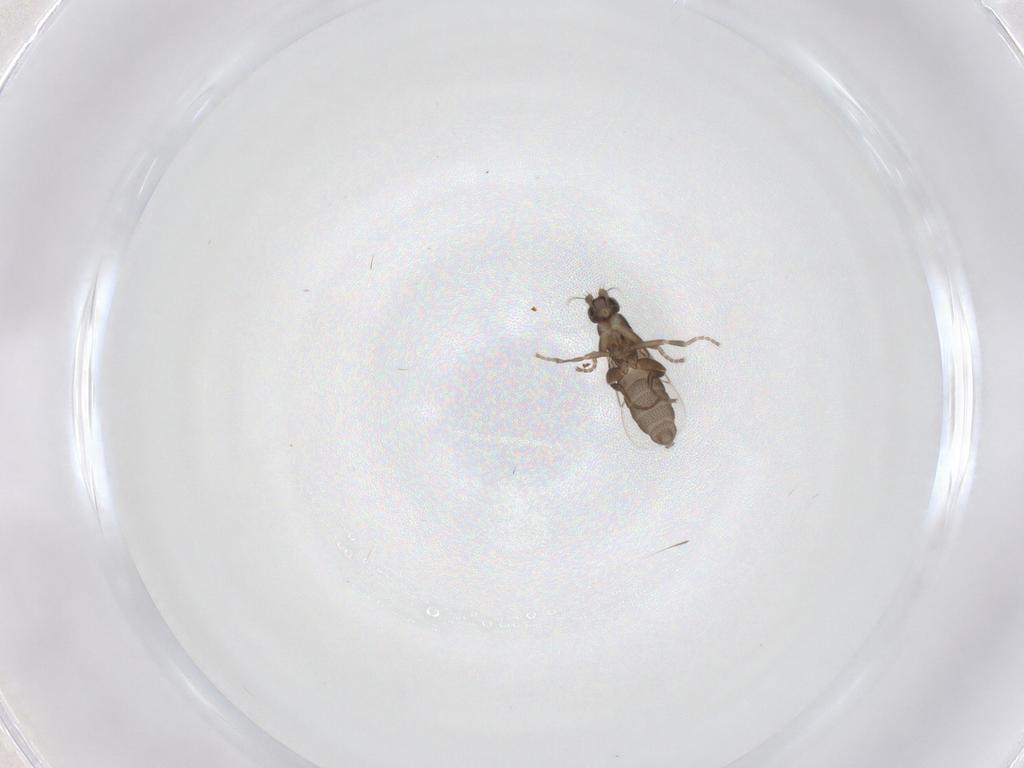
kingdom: Animalia
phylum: Arthropoda
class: Insecta
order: Diptera
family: Phoridae
